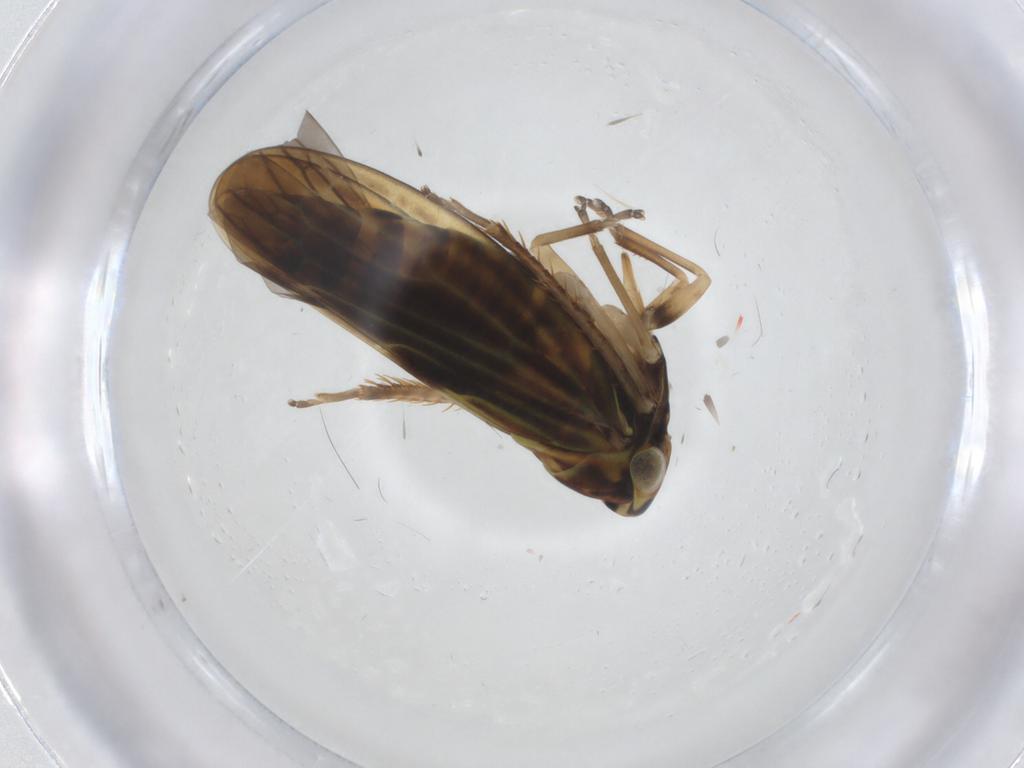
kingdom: Animalia
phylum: Arthropoda
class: Insecta
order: Hemiptera
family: Cicadellidae
